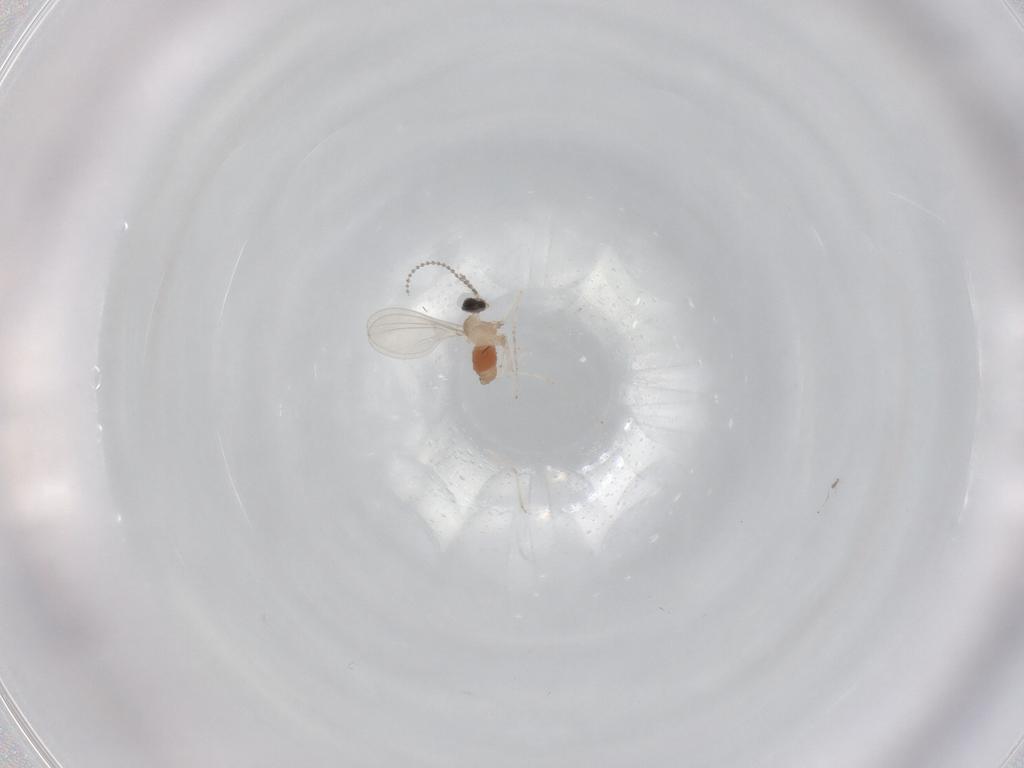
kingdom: Animalia
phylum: Arthropoda
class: Insecta
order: Diptera
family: Cecidomyiidae
